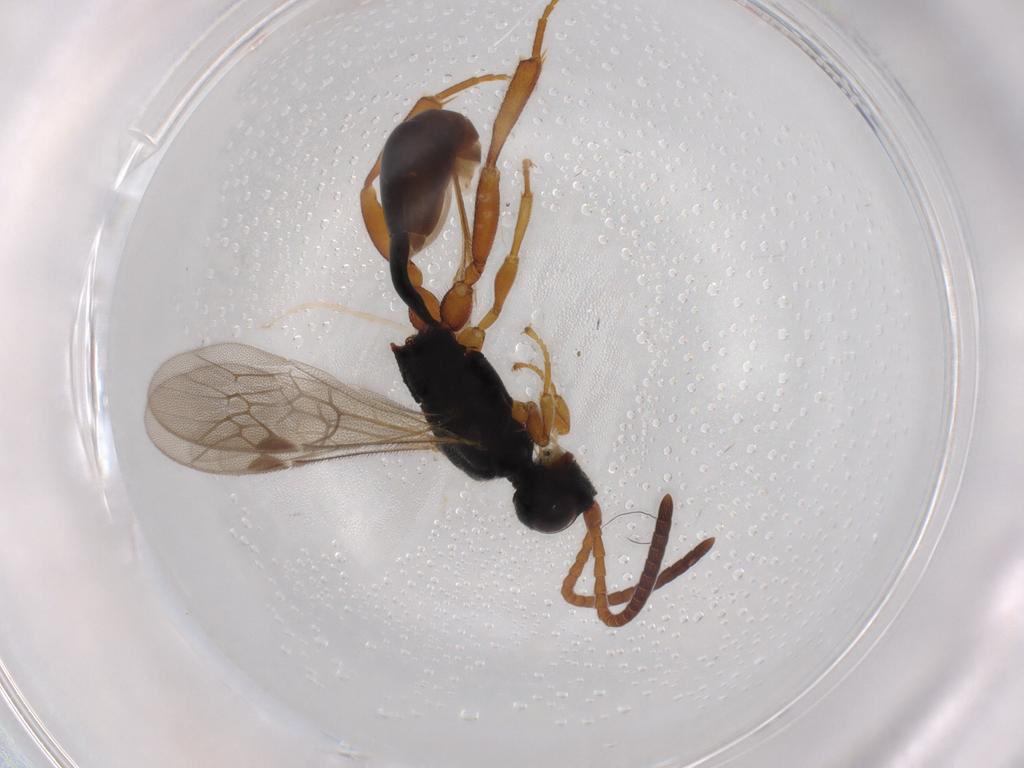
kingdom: Animalia
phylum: Arthropoda
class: Insecta
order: Hymenoptera
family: Ichneumonidae
